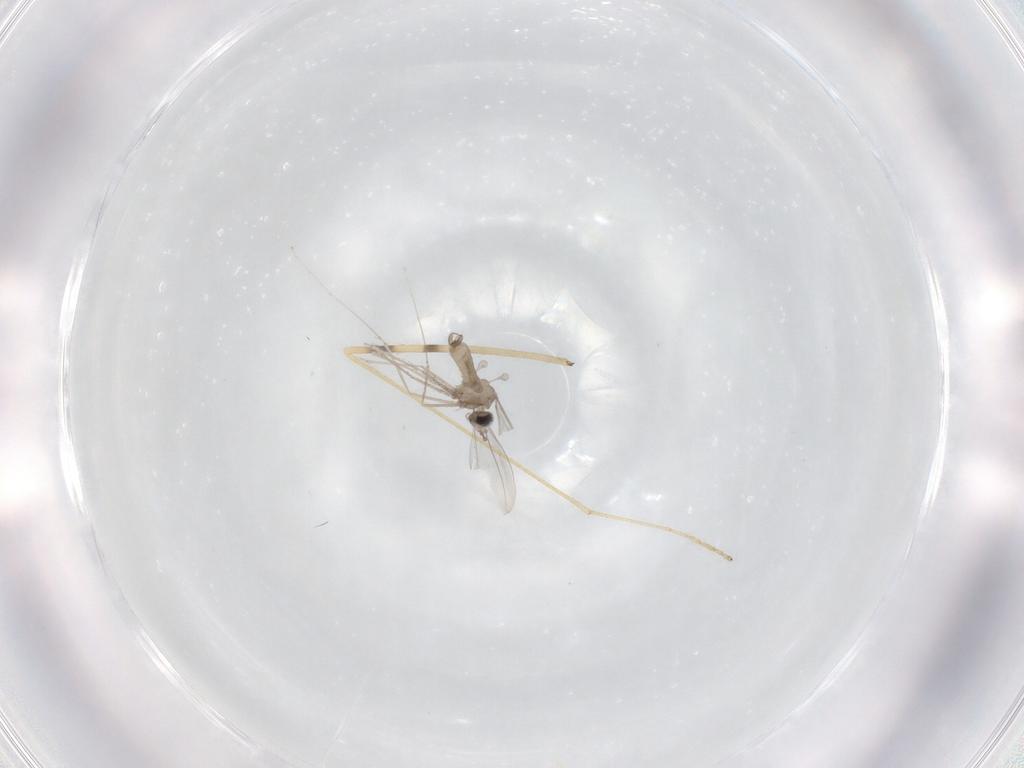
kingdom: Animalia
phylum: Arthropoda
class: Insecta
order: Diptera
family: Limoniidae
